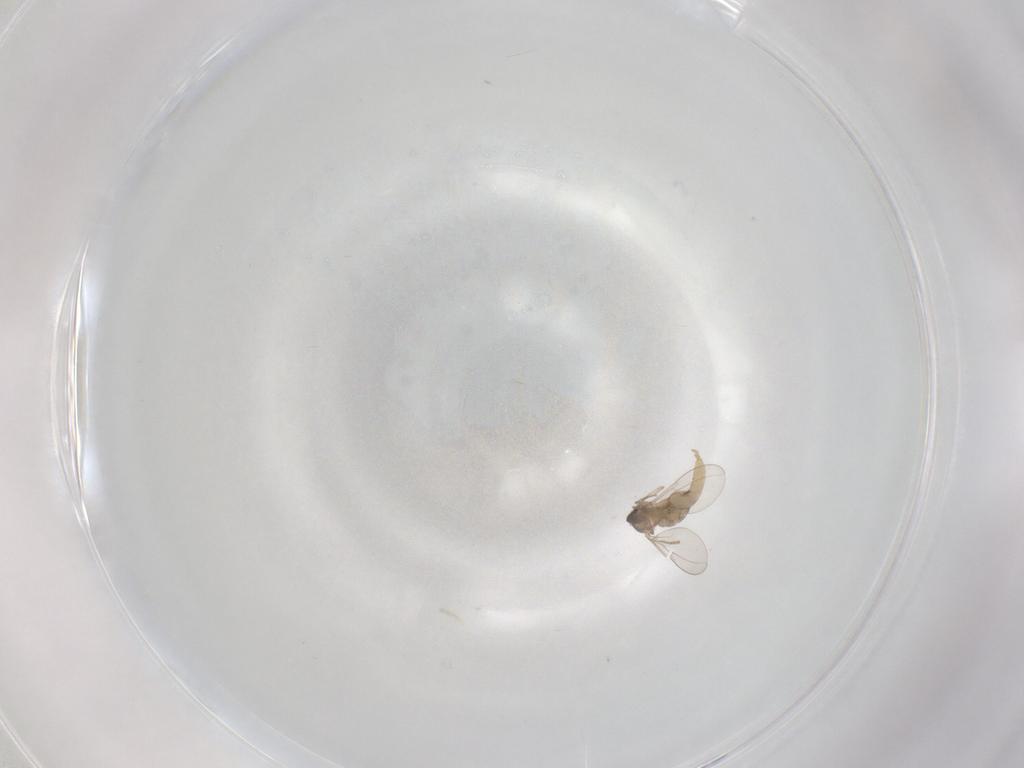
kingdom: Animalia
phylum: Arthropoda
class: Insecta
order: Diptera
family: Cecidomyiidae
